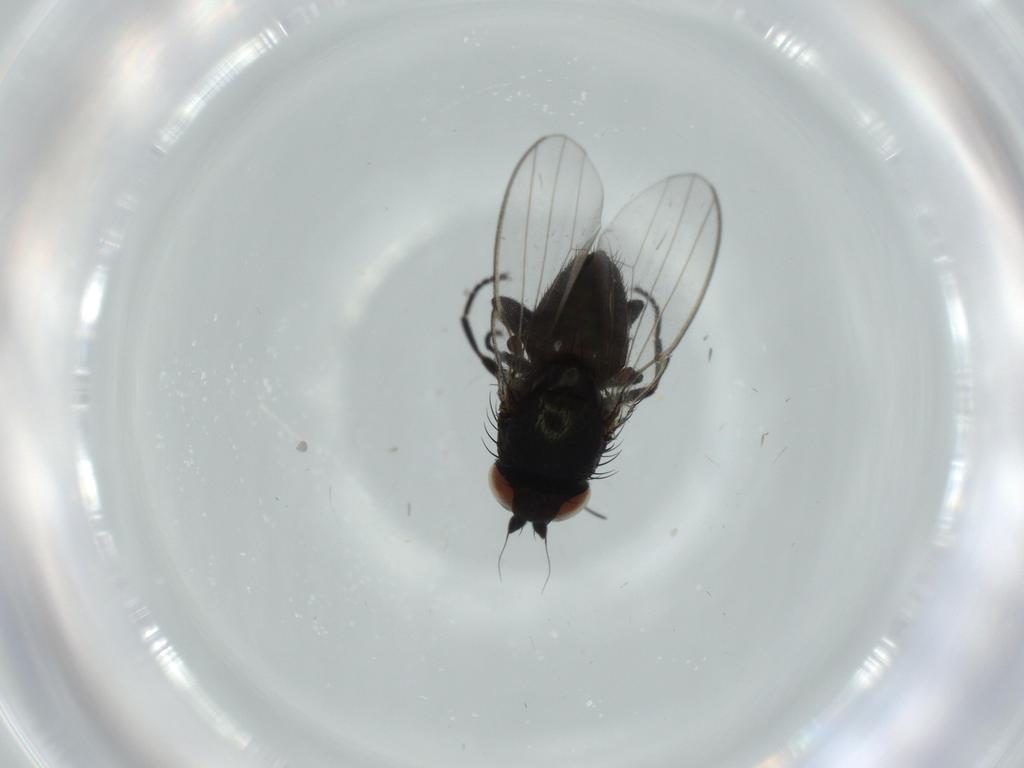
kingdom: Animalia
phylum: Arthropoda
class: Insecta
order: Diptera
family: Milichiidae
